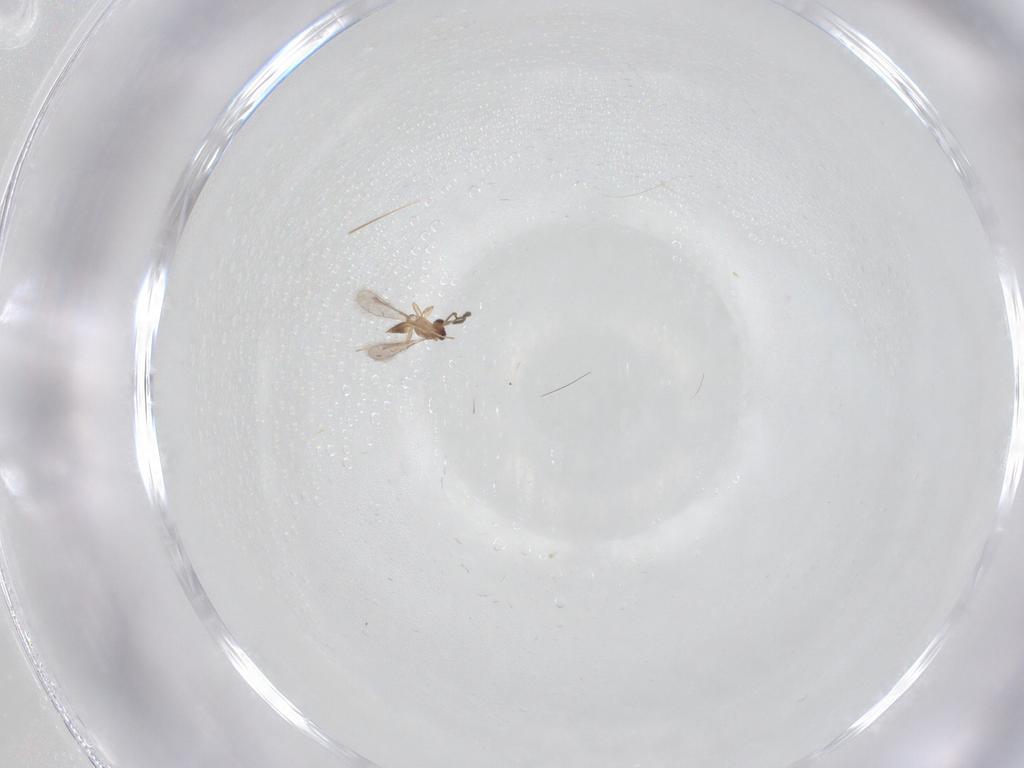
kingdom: Animalia
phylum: Arthropoda
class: Insecta
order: Hymenoptera
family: Mymaridae
